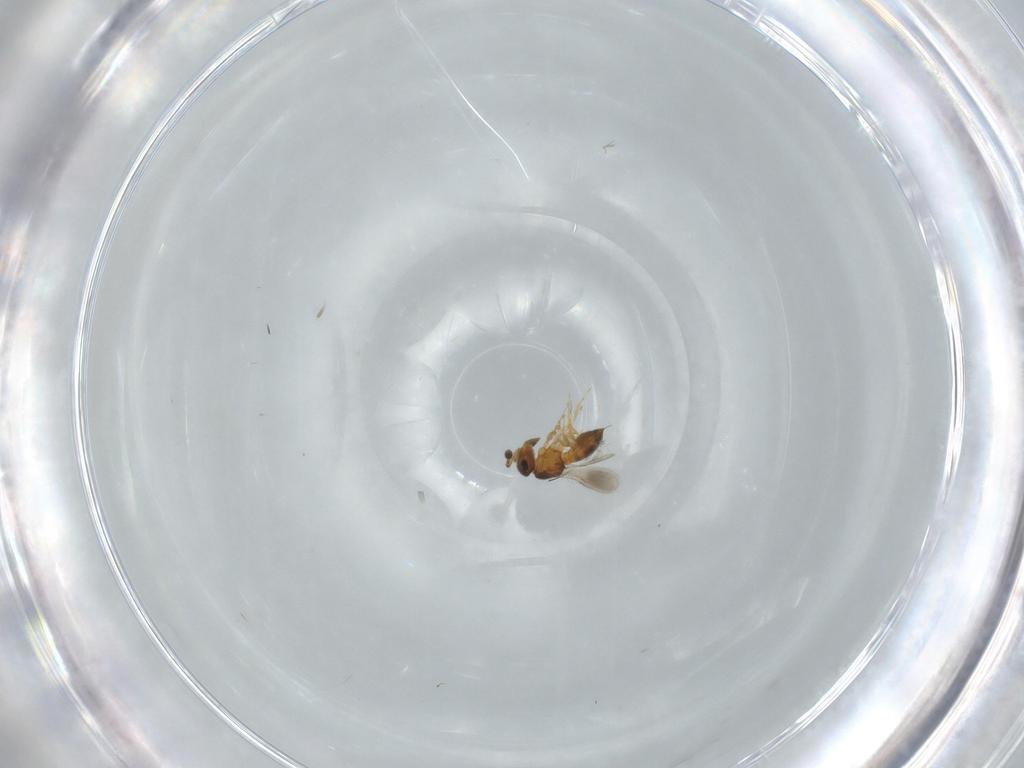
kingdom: Animalia
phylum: Arthropoda
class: Insecta
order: Hymenoptera
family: Scelionidae
